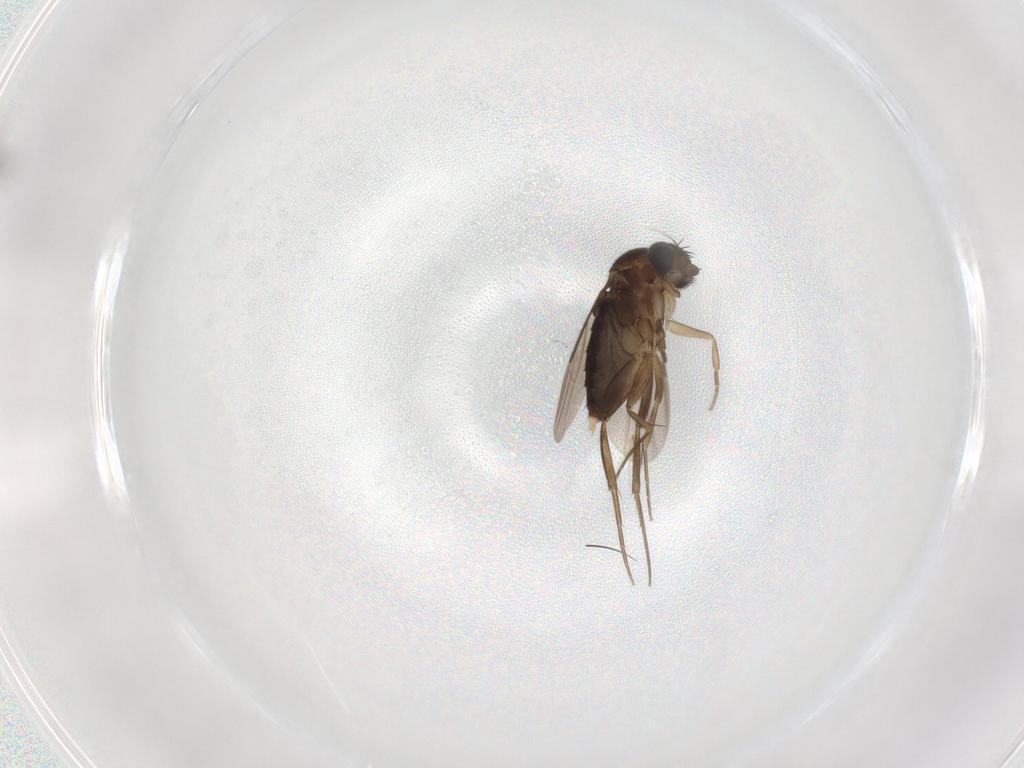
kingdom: Animalia
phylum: Arthropoda
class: Insecta
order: Diptera
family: Phoridae
